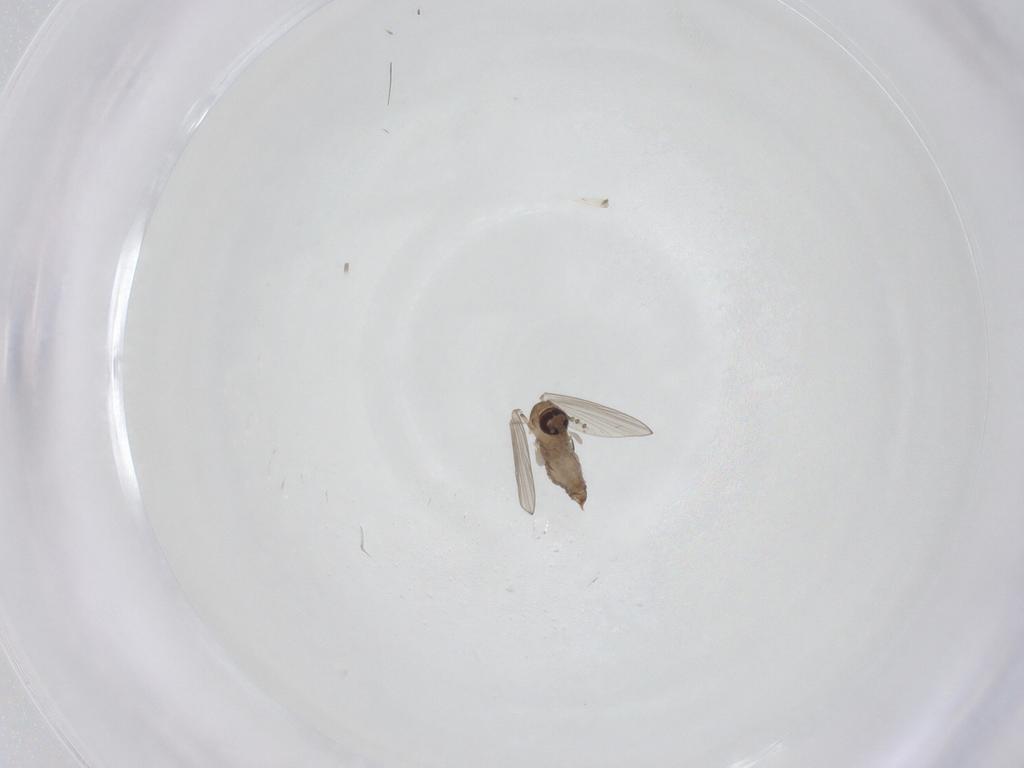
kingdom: Animalia
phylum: Arthropoda
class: Insecta
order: Diptera
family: Psychodidae
